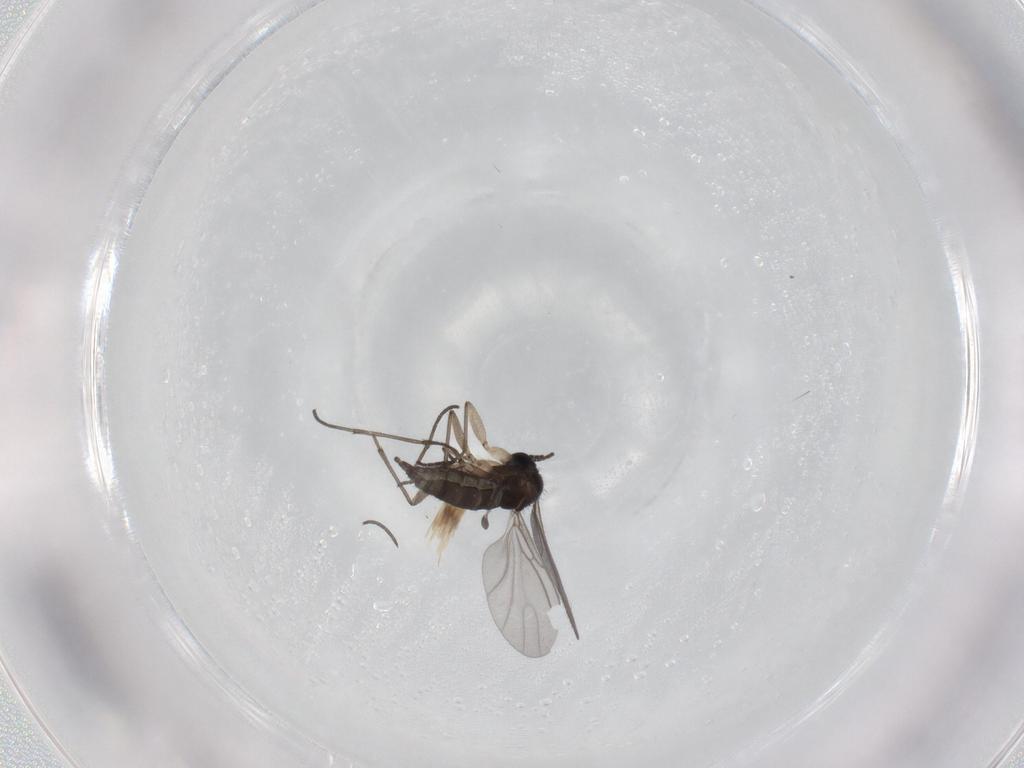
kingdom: Animalia
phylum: Arthropoda
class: Insecta
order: Diptera
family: Sciaridae
